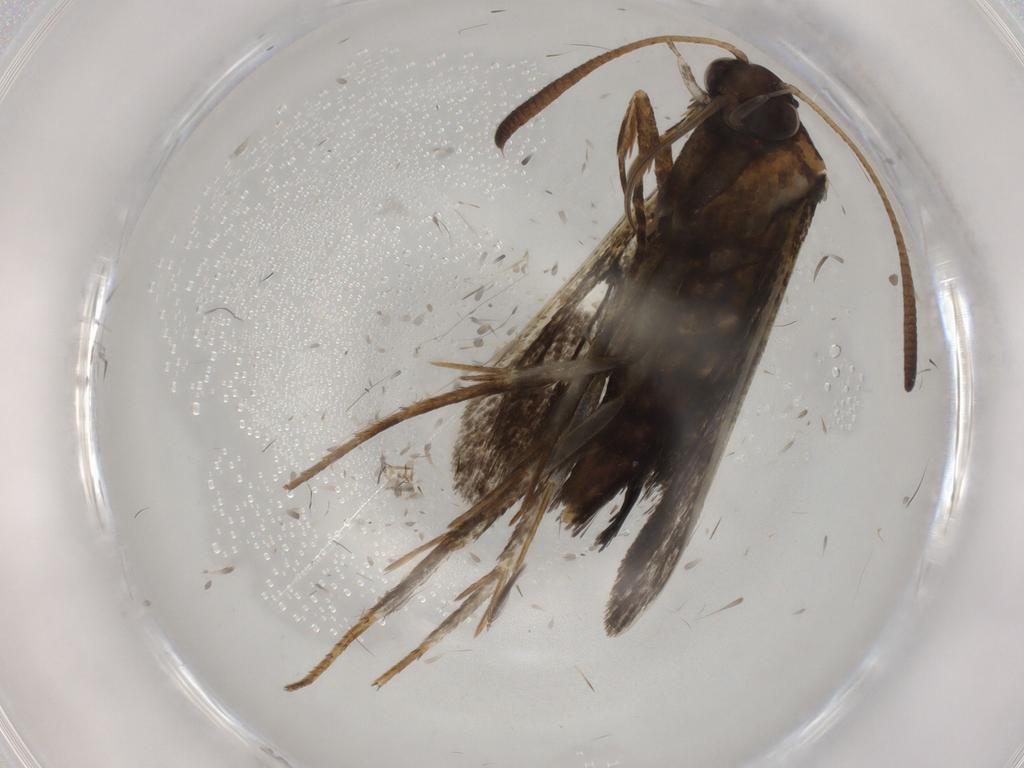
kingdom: Animalia
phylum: Arthropoda
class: Insecta
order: Lepidoptera
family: Sesiidae
